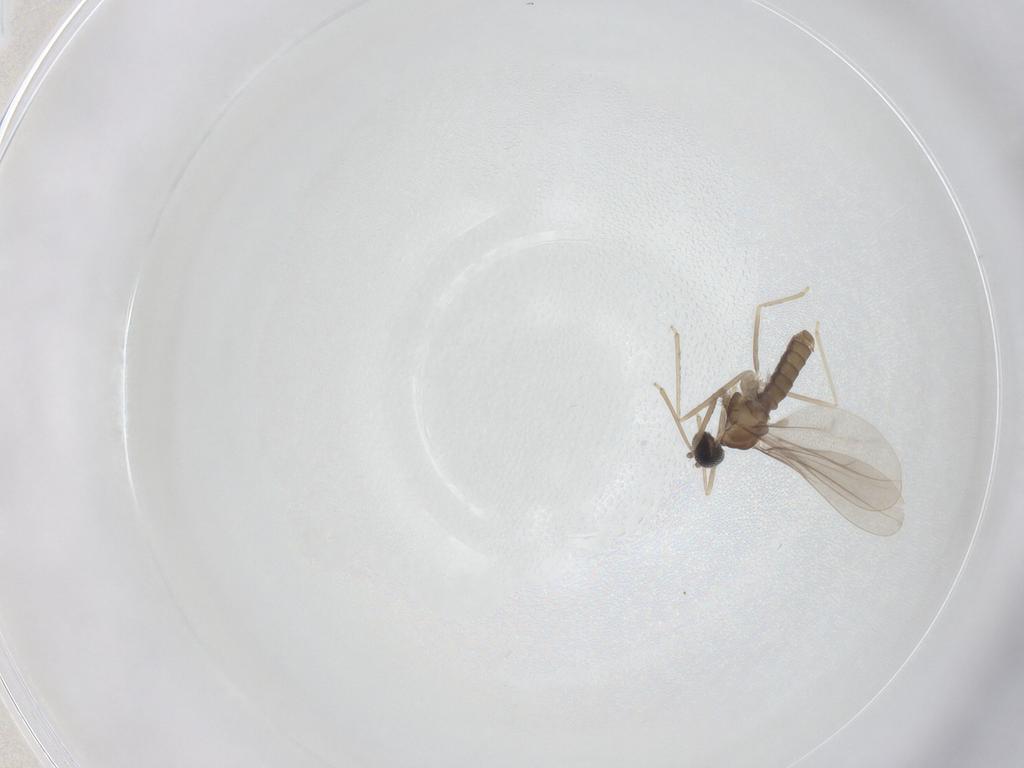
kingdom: Animalia
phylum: Arthropoda
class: Insecta
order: Diptera
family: Cecidomyiidae
